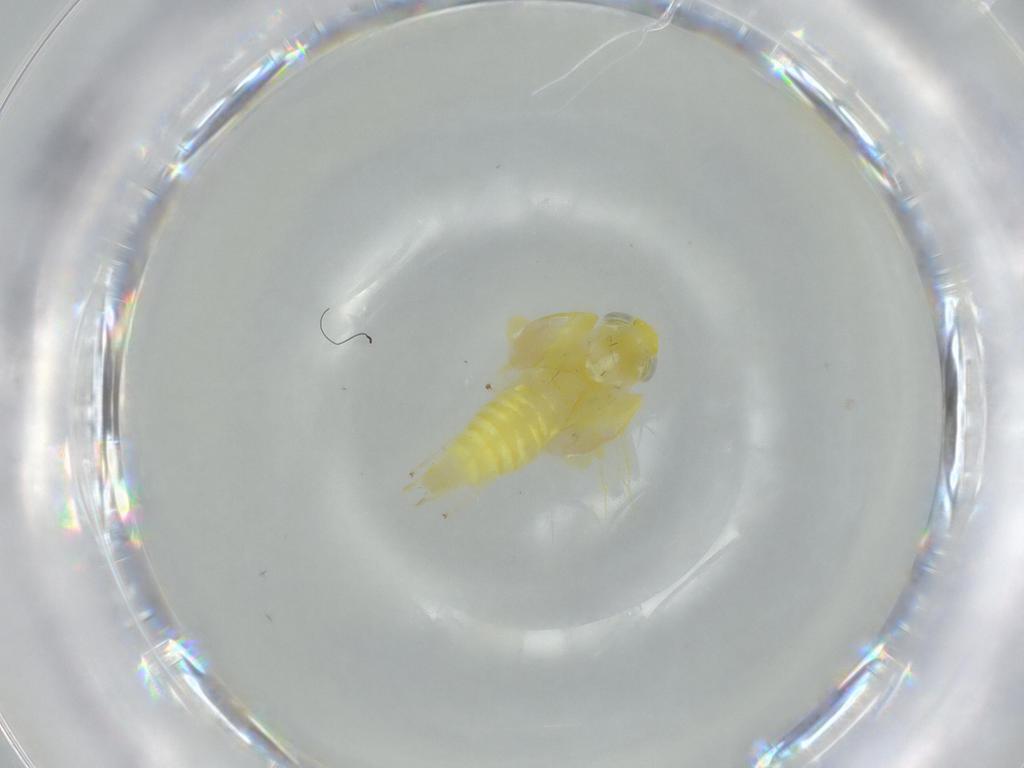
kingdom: Animalia
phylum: Arthropoda
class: Insecta
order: Hemiptera
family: Cicadellidae
